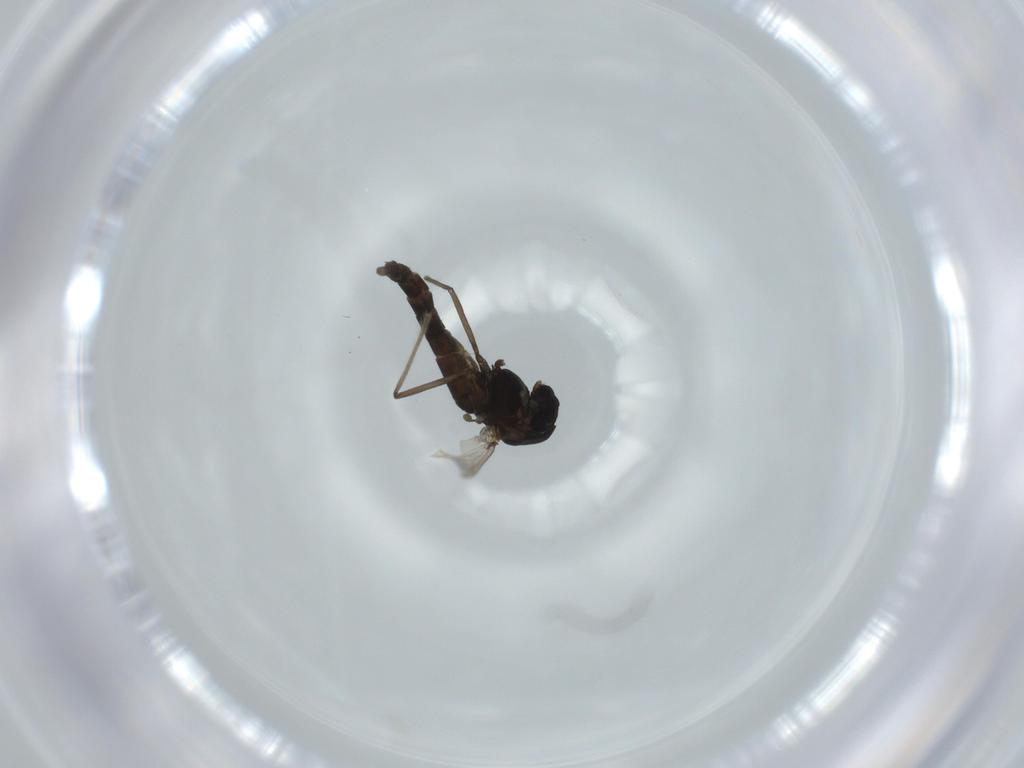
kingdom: Animalia
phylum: Arthropoda
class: Insecta
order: Diptera
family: Chironomidae
